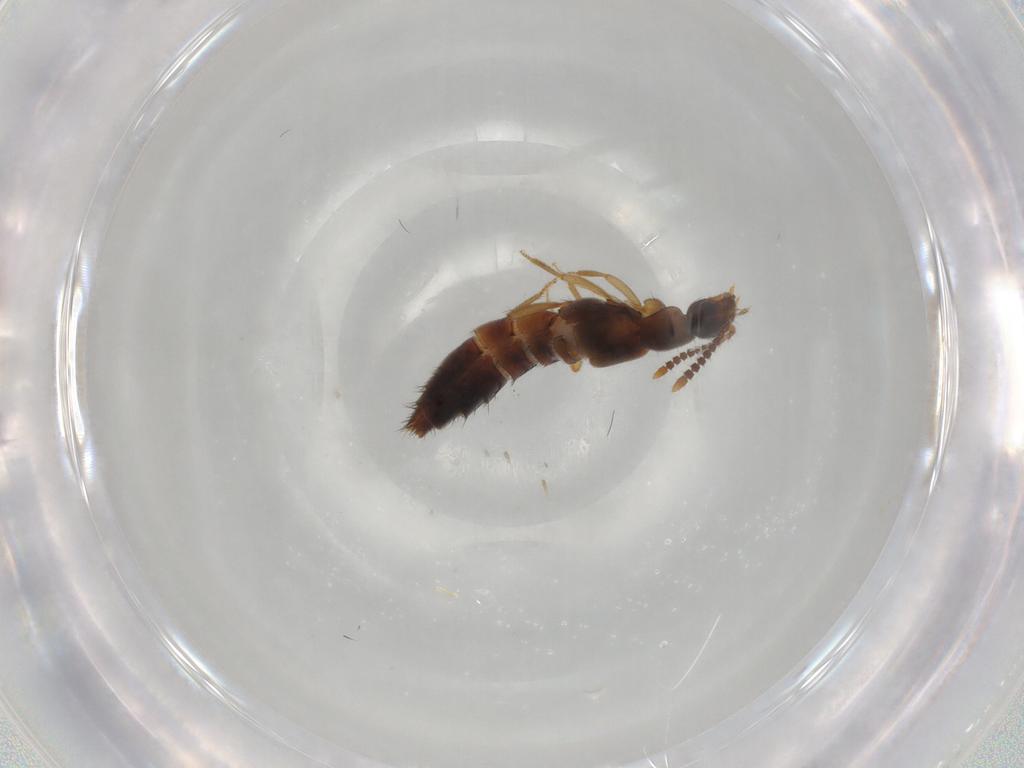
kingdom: Animalia
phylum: Arthropoda
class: Insecta
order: Coleoptera
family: Staphylinidae
